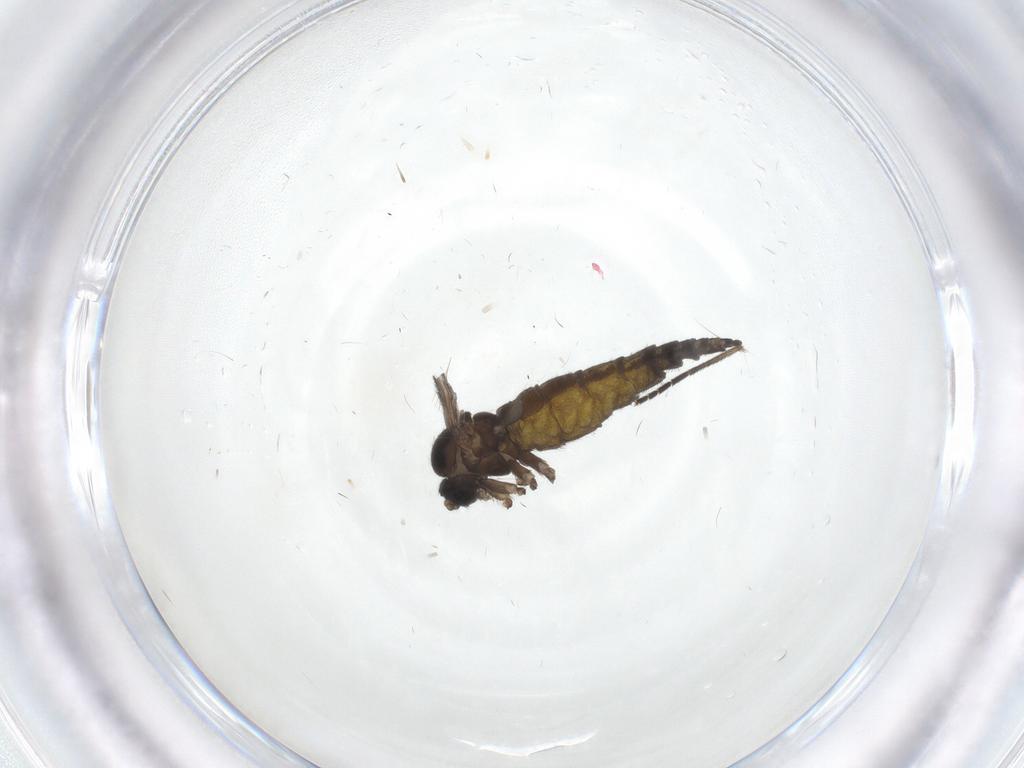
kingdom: Animalia
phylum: Arthropoda
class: Insecta
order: Diptera
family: Sciaridae
